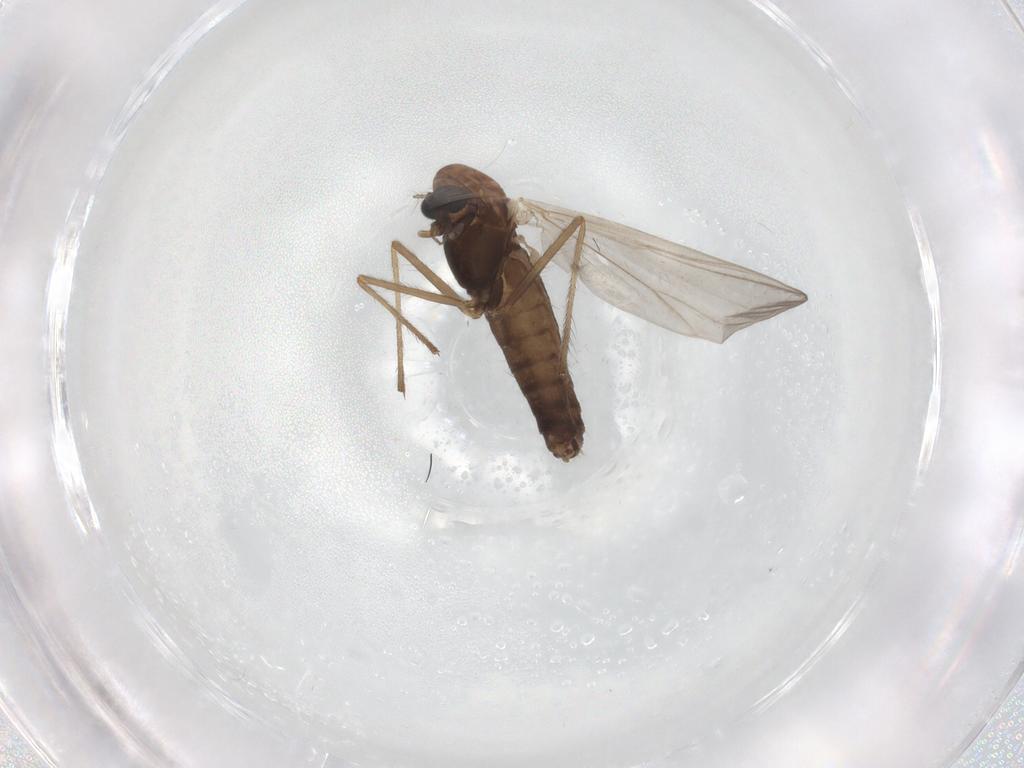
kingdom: Animalia
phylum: Arthropoda
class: Insecta
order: Diptera
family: Chironomidae
